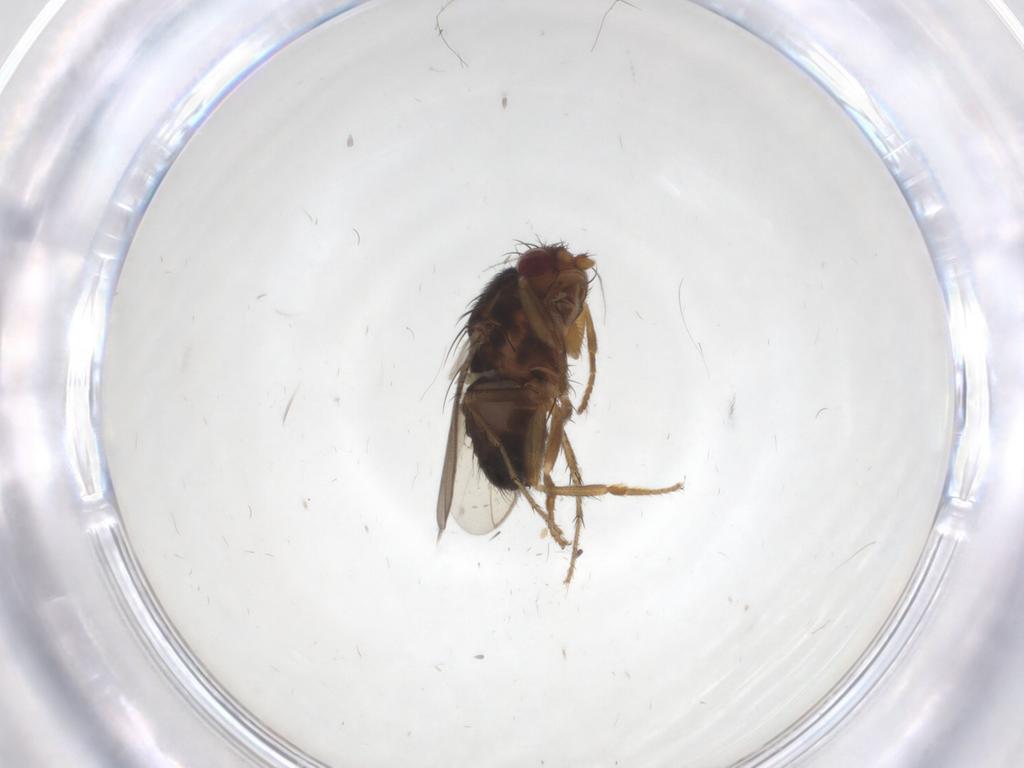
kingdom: Animalia
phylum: Arthropoda
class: Insecta
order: Diptera
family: Sphaeroceridae
